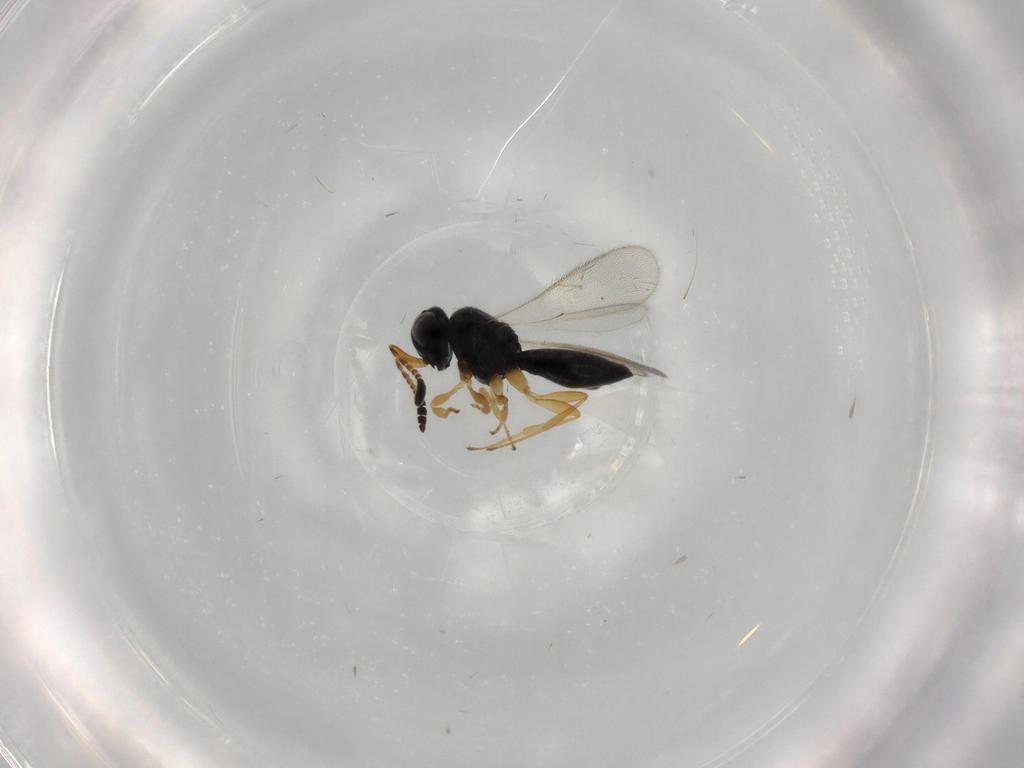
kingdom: Animalia
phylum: Arthropoda
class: Insecta
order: Hymenoptera
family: Scelionidae
